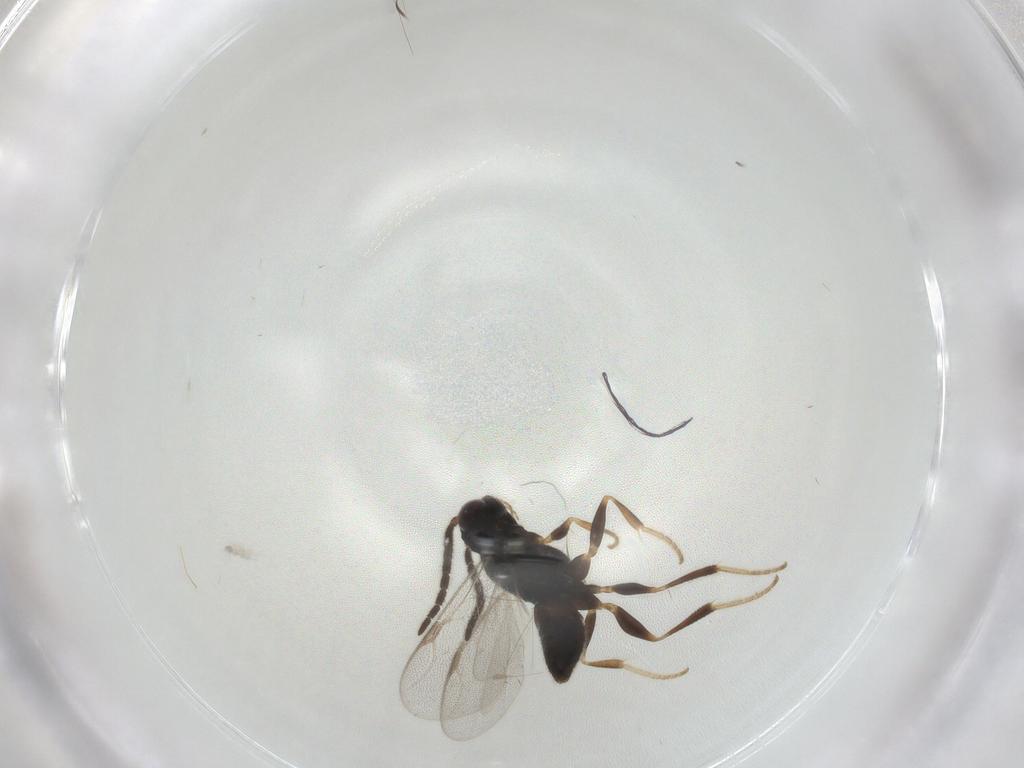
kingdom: Animalia
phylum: Arthropoda
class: Insecta
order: Hymenoptera
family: Dryinidae
